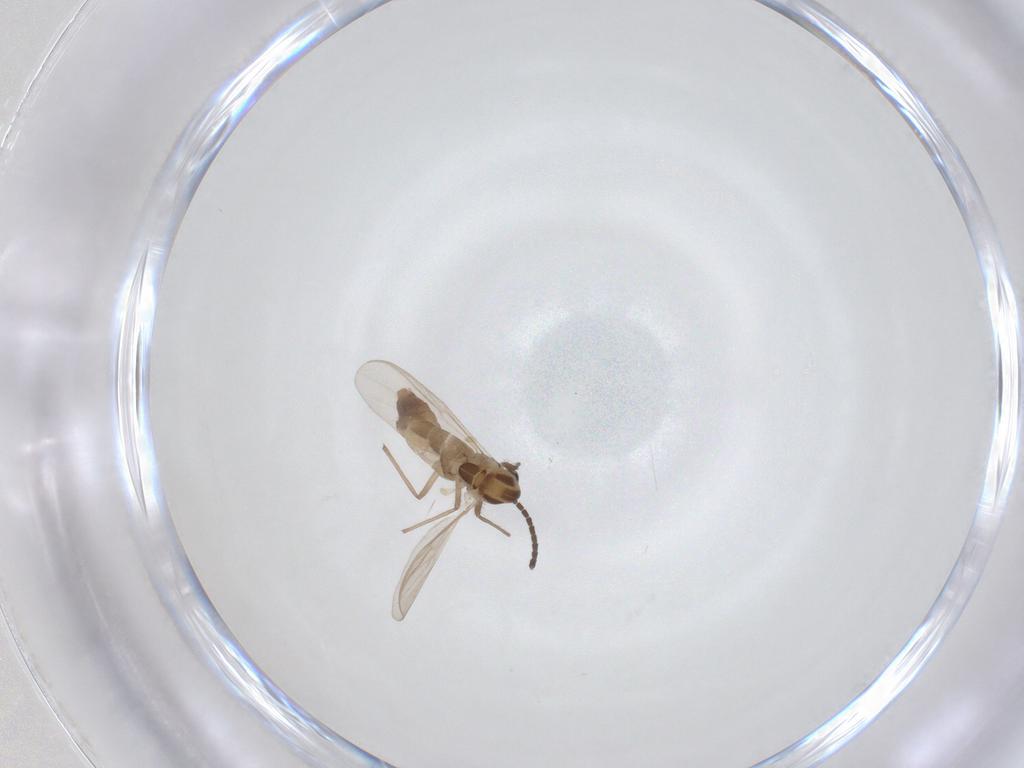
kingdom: Animalia
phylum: Arthropoda
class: Insecta
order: Diptera
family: Chironomidae
